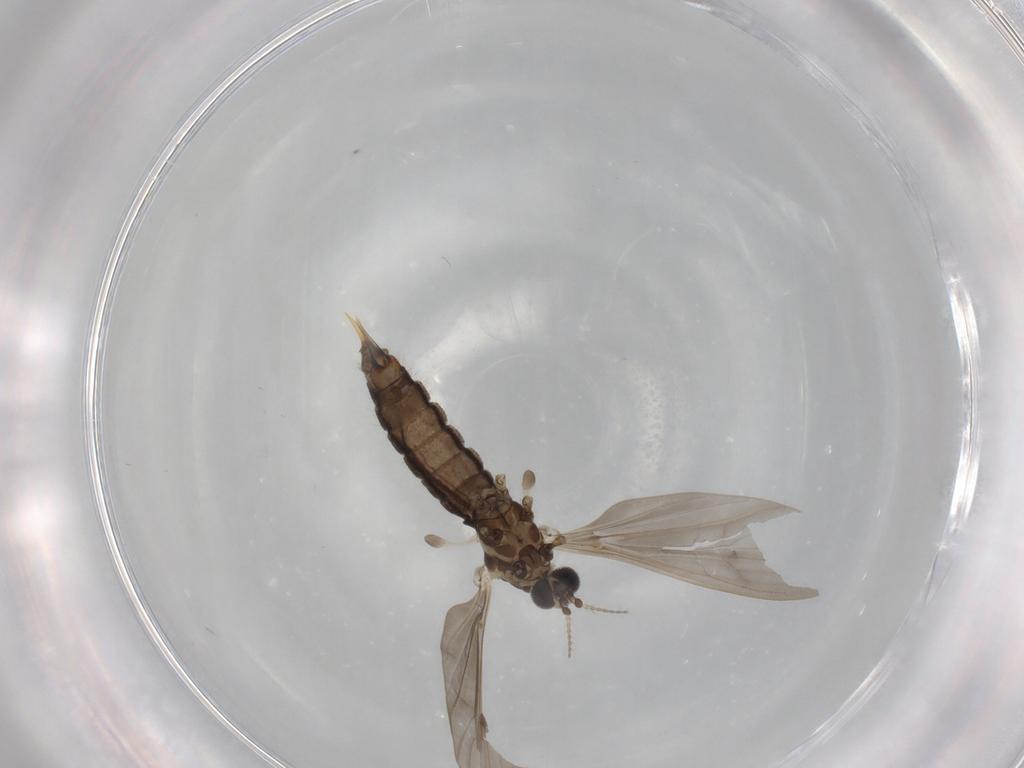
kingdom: Animalia
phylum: Arthropoda
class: Insecta
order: Diptera
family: Limoniidae
